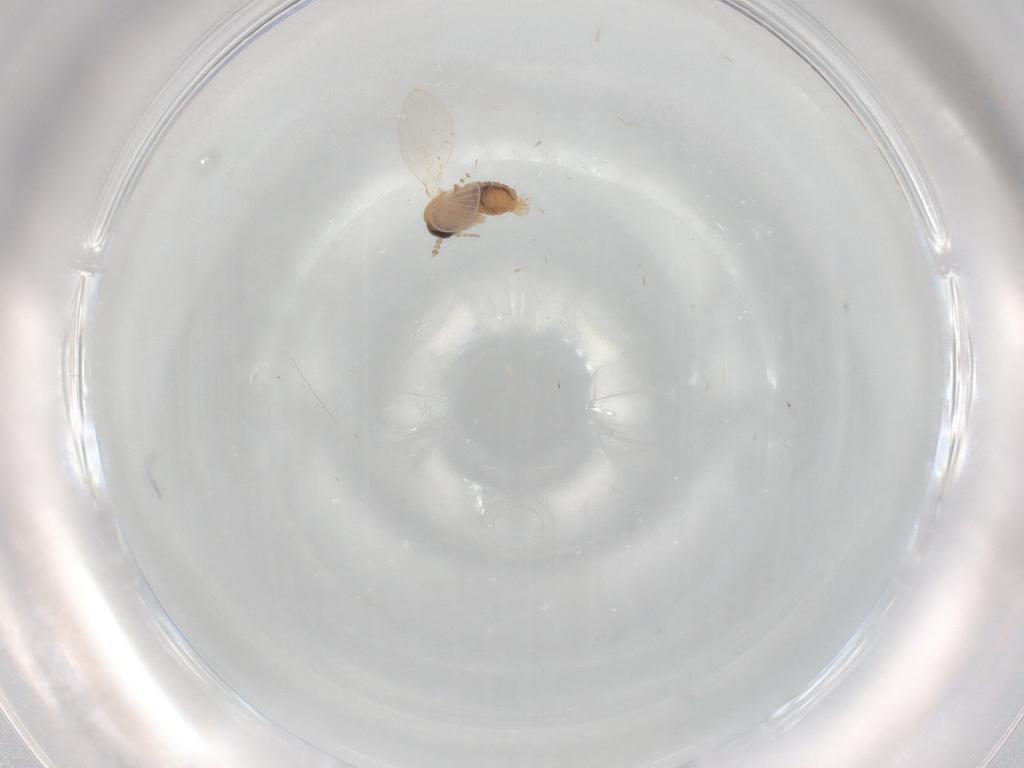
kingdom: Animalia
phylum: Arthropoda
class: Insecta
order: Diptera
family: Psychodidae
